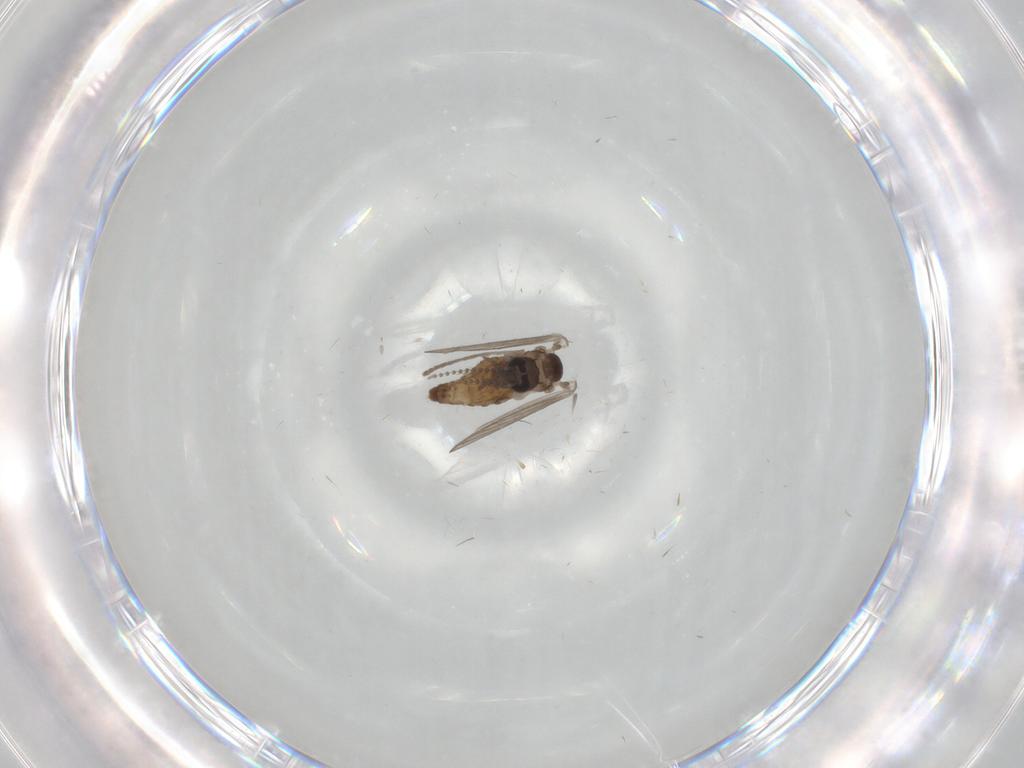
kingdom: Animalia
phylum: Arthropoda
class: Insecta
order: Diptera
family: Psychodidae
